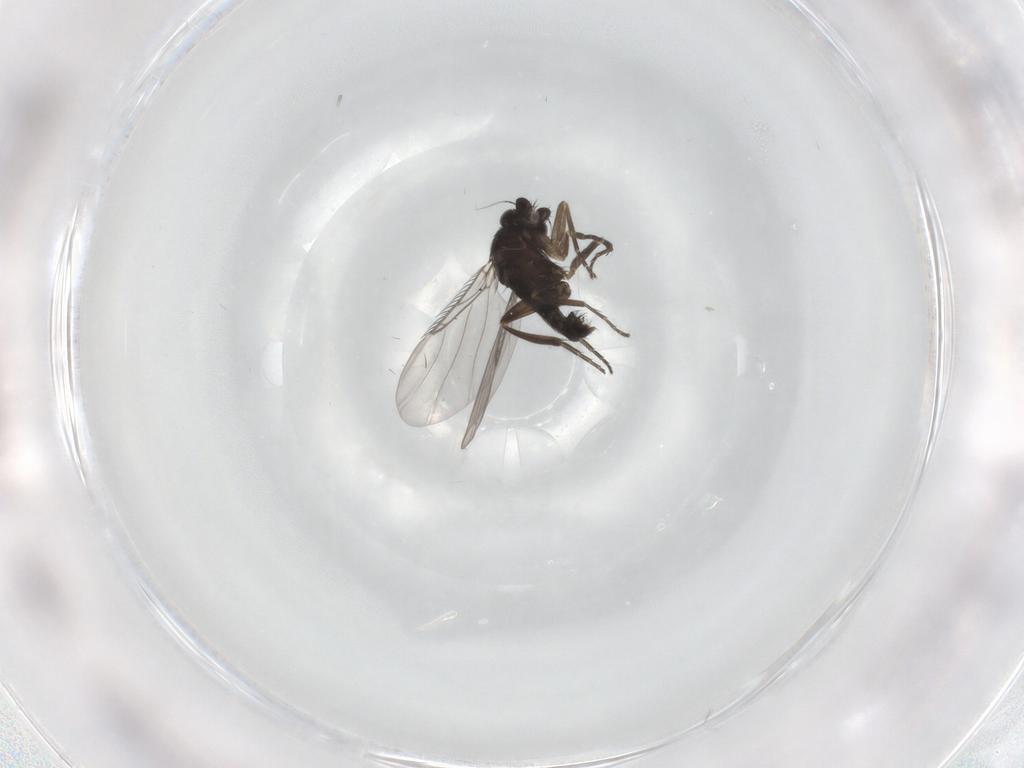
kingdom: Animalia
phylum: Arthropoda
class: Insecta
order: Diptera
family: Phoridae
